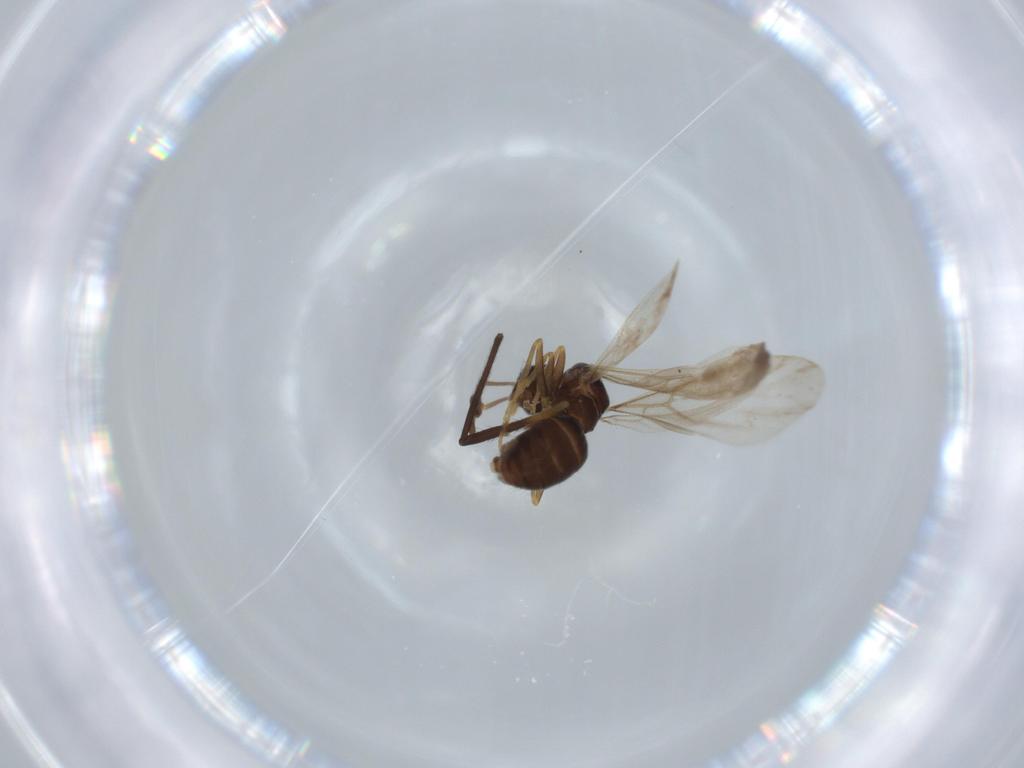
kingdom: Animalia
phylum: Arthropoda
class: Insecta
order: Hymenoptera
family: Formicidae
